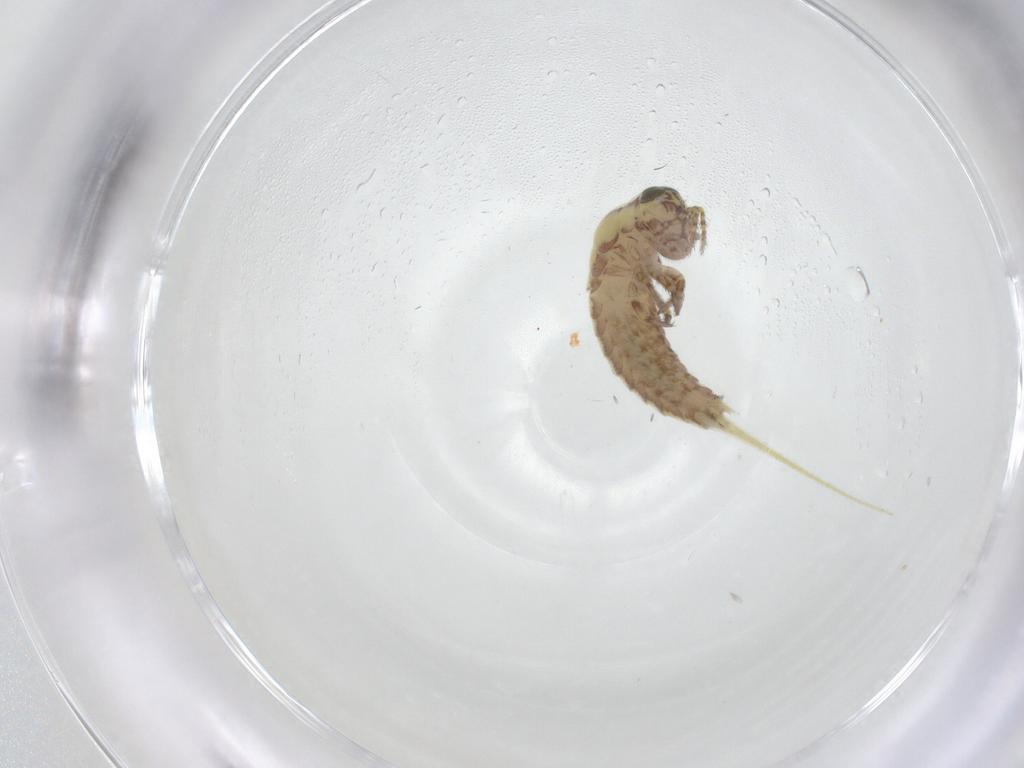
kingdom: Animalia
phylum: Arthropoda
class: Insecta
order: Archaeognatha
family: Meinertellidae
